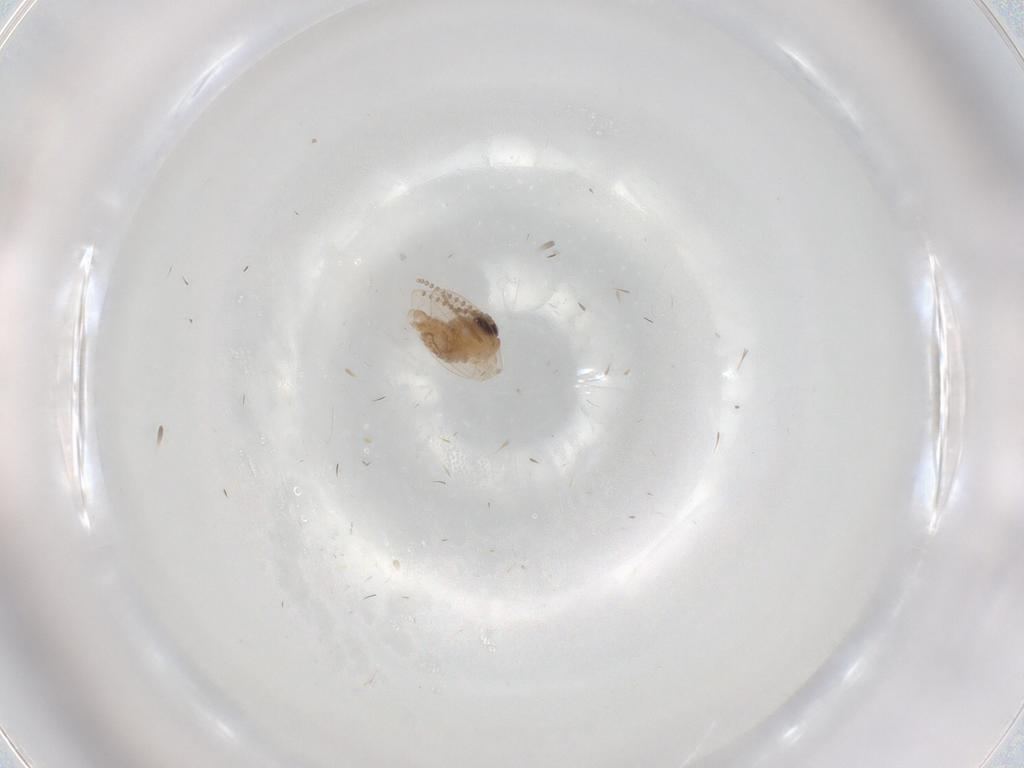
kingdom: Animalia
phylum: Arthropoda
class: Insecta
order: Diptera
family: Psychodidae
